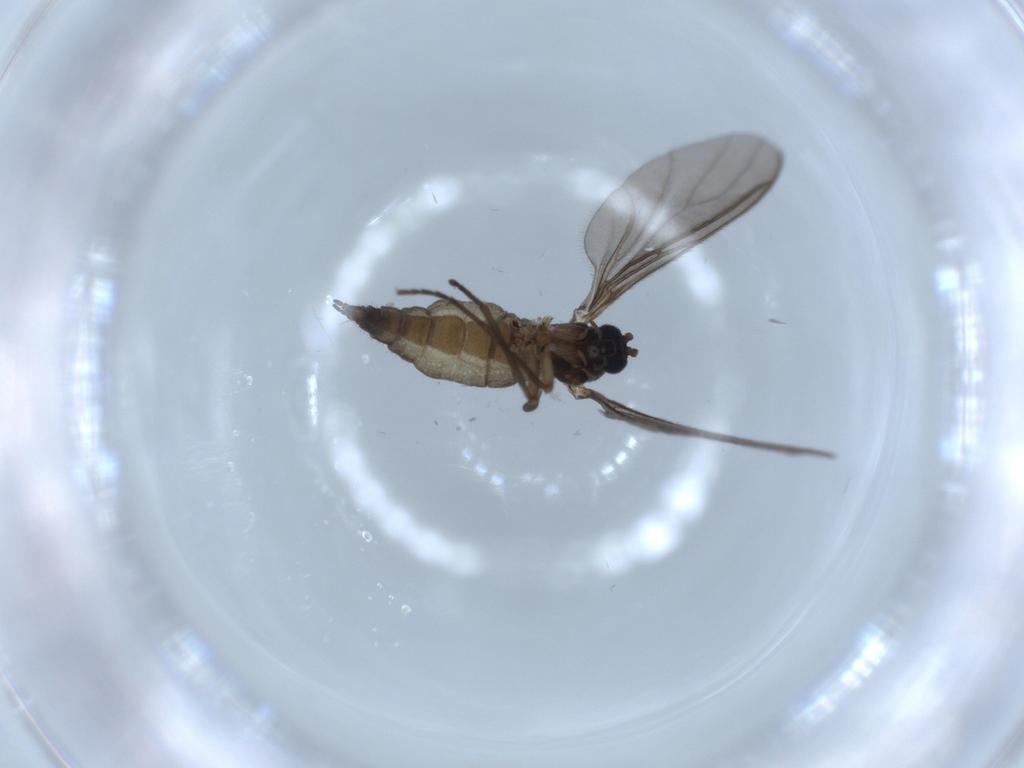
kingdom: Animalia
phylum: Arthropoda
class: Insecta
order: Diptera
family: Sciaridae
